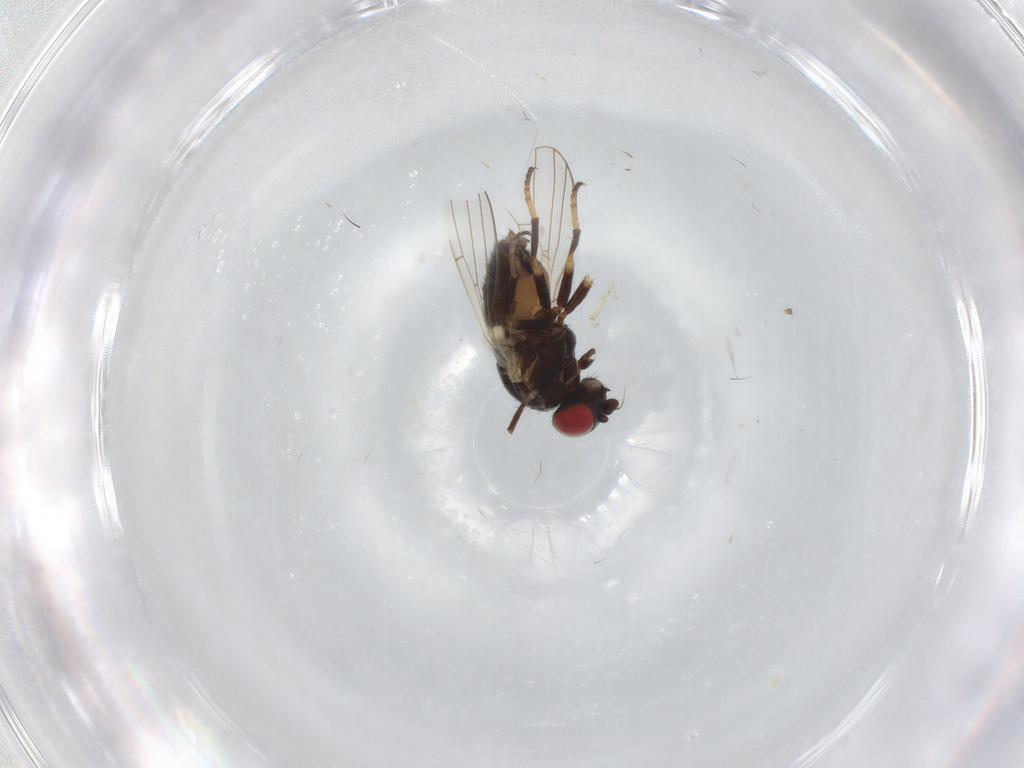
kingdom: Animalia
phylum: Arthropoda
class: Insecta
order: Diptera
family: Chamaemyiidae
